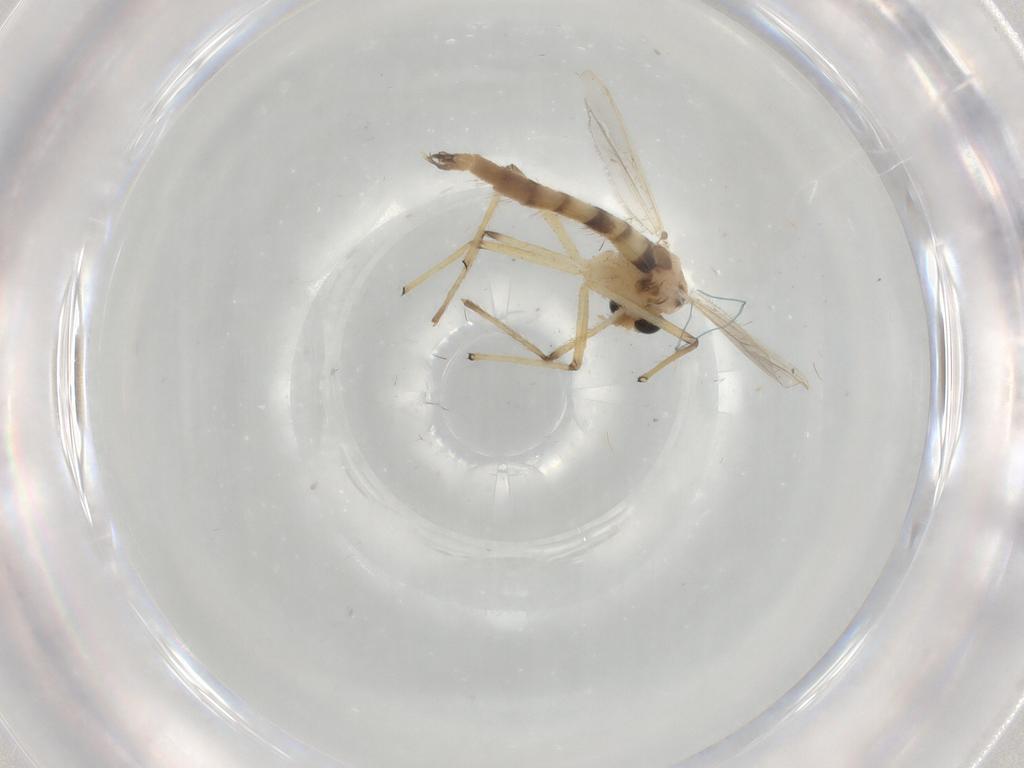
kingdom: Animalia
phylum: Arthropoda
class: Insecta
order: Diptera
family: Chironomidae
